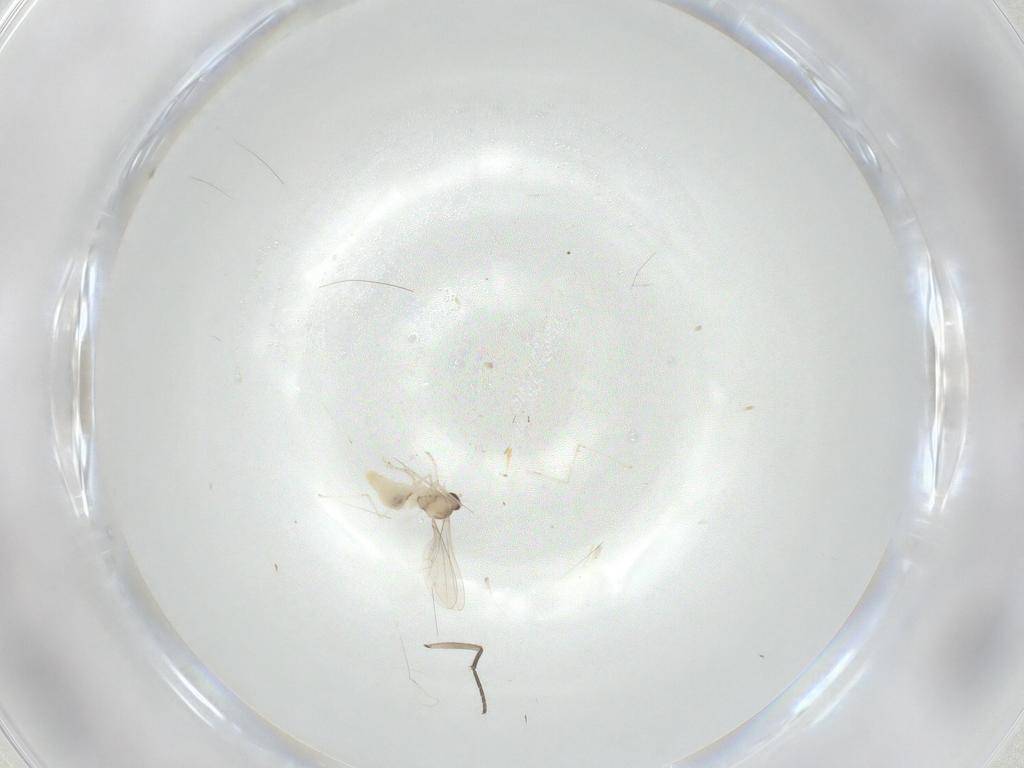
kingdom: Animalia
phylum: Arthropoda
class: Insecta
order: Diptera
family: Cecidomyiidae
